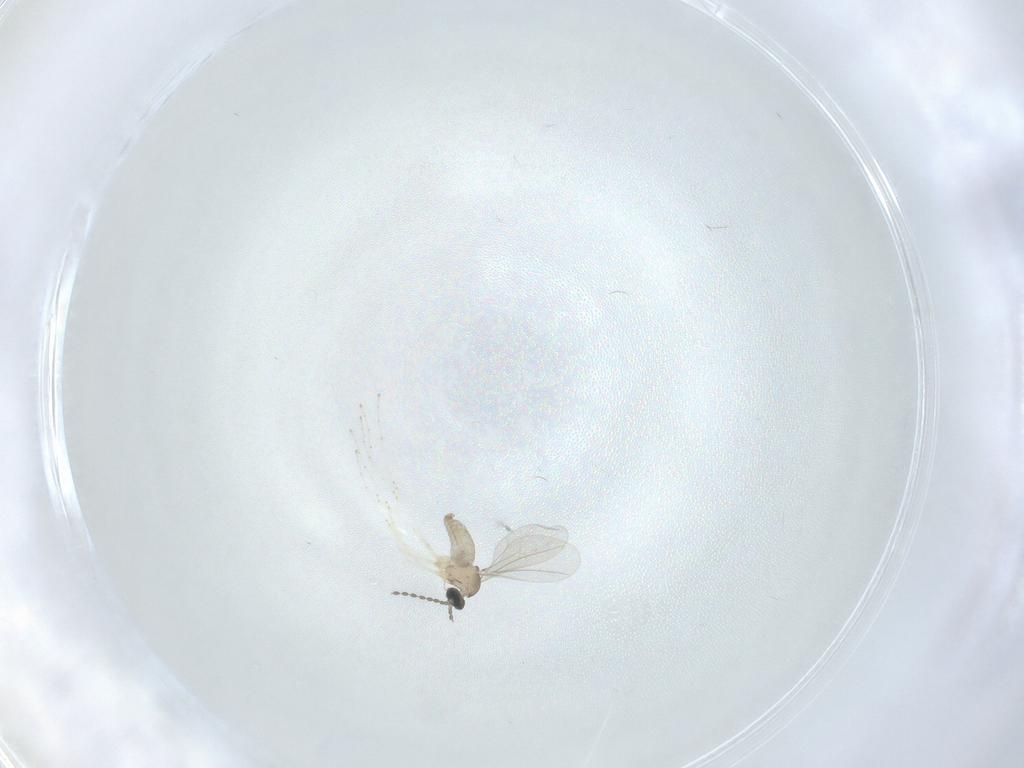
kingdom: Animalia
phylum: Arthropoda
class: Insecta
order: Diptera
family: Cecidomyiidae
